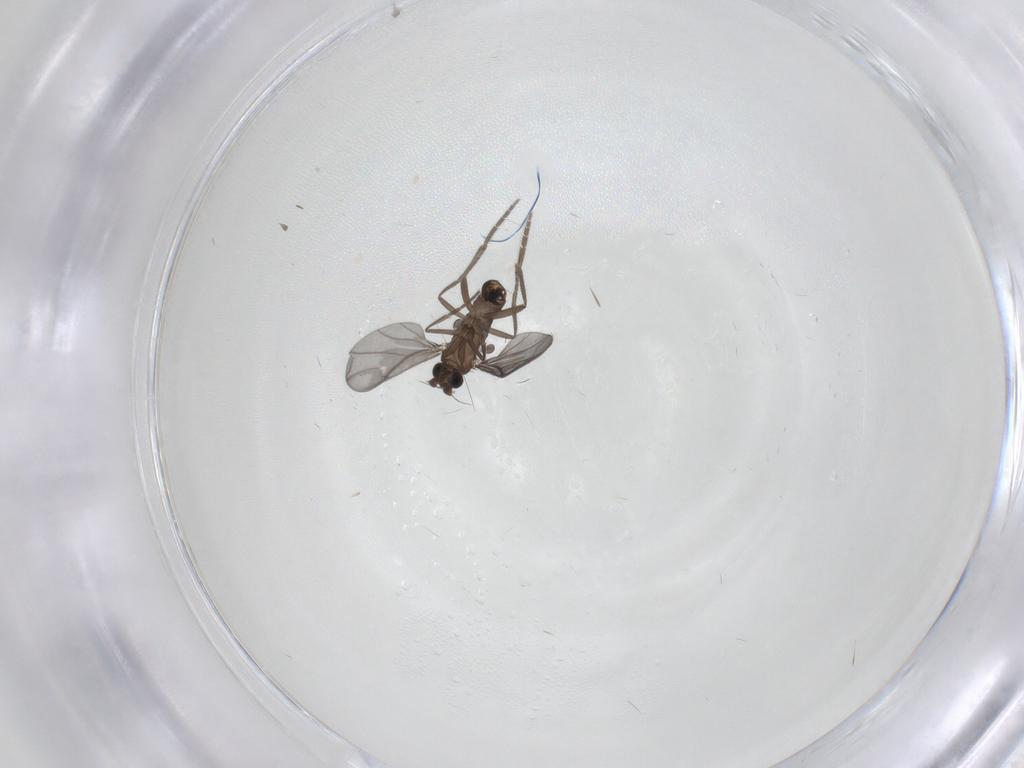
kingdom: Animalia
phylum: Arthropoda
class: Insecta
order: Diptera
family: Phoridae
